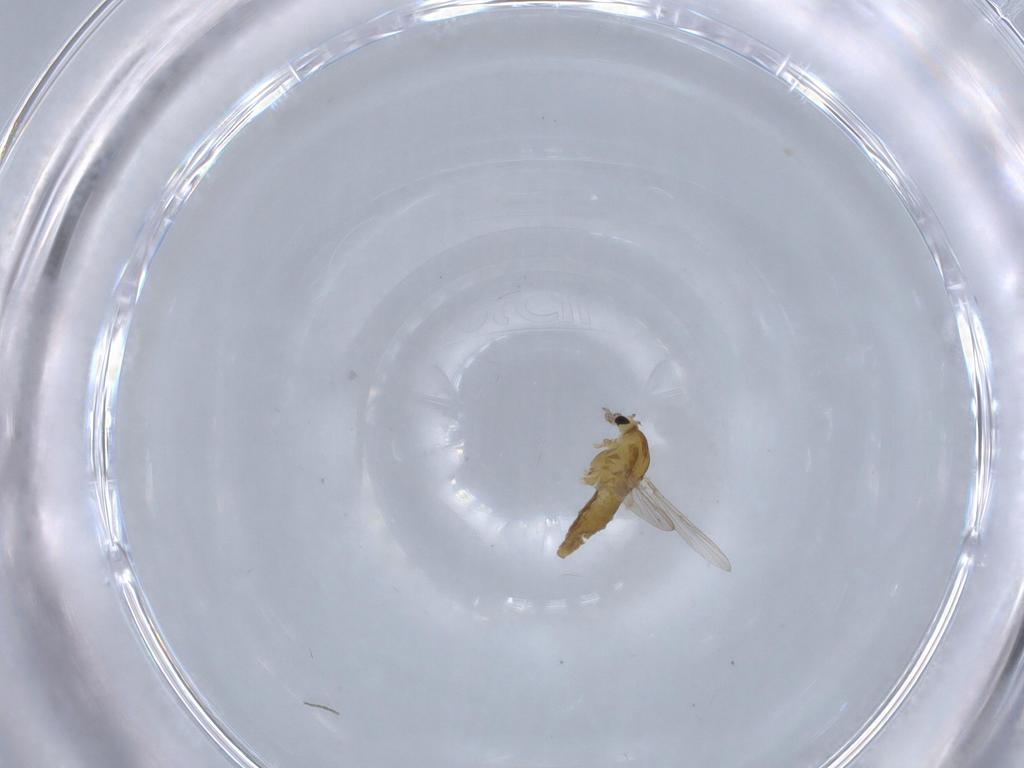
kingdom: Animalia
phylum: Arthropoda
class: Insecta
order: Diptera
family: Chironomidae
